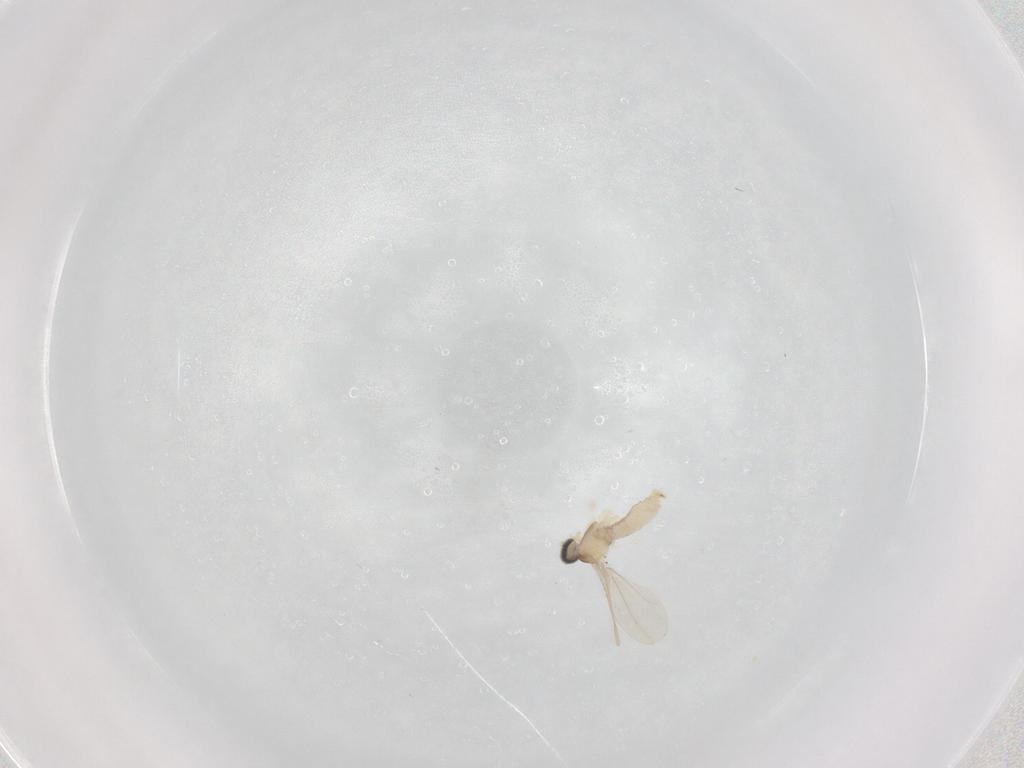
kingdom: Animalia
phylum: Arthropoda
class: Insecta
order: Diptera
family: Cecidomyiidae
